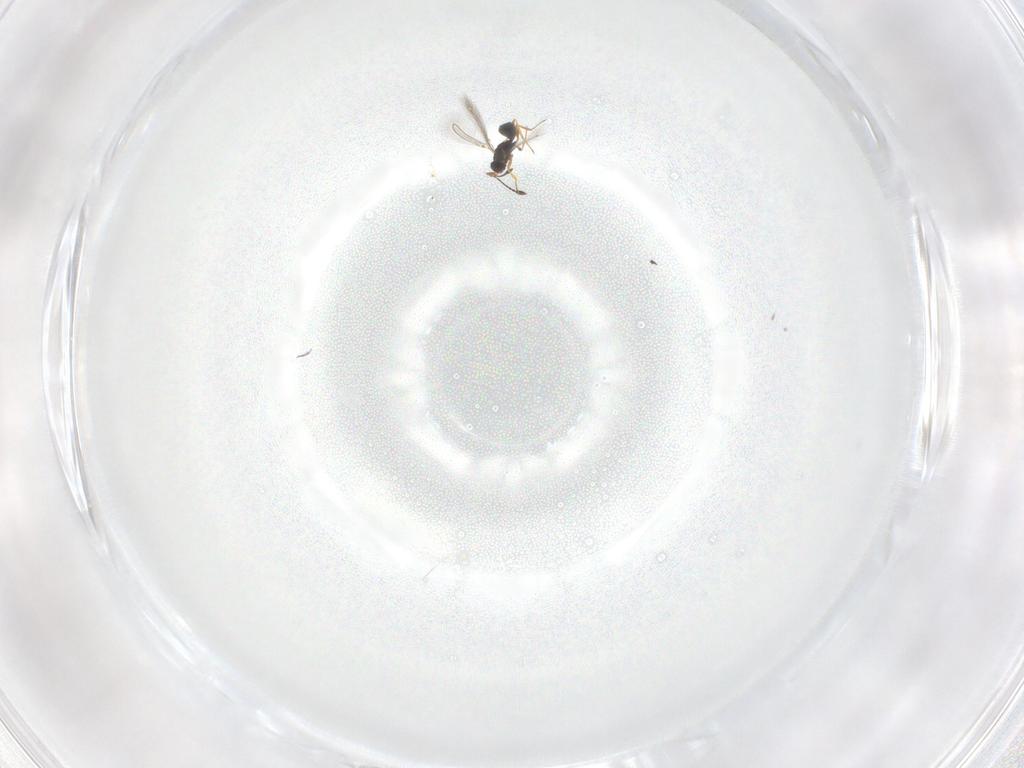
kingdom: Animalia
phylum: Arthropoda
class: Insecta
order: Hymenoptera
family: Mymaridae
